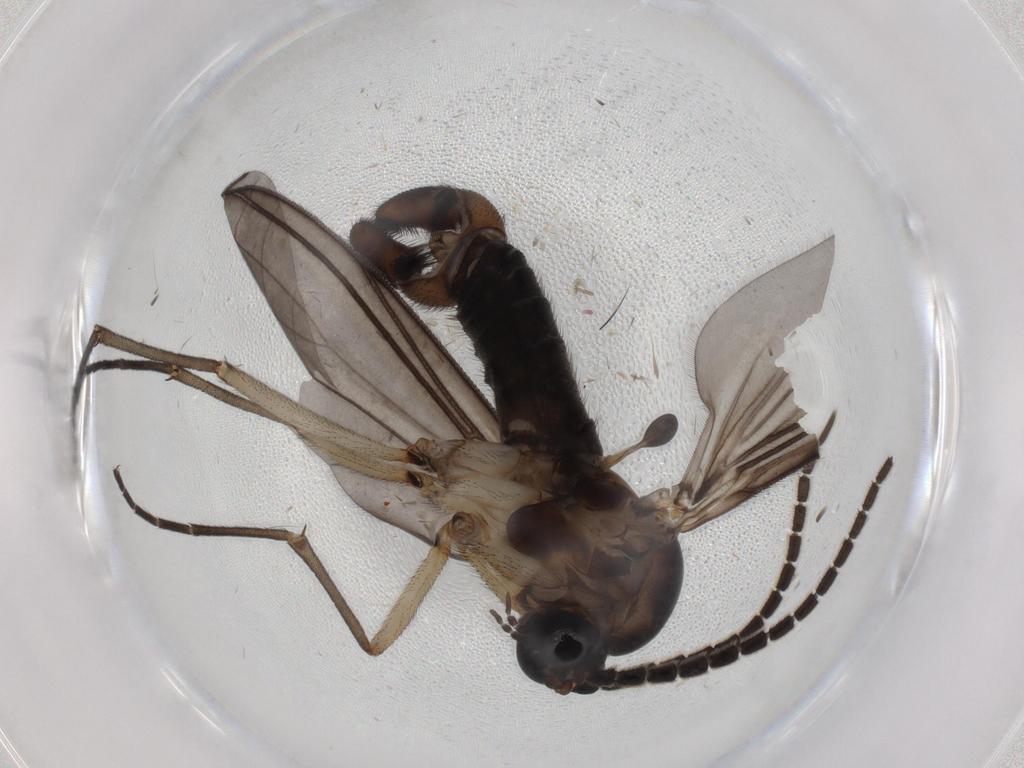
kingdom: Animalia
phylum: Arthropoda
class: Insecta
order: Diptera
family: Sciaridae
